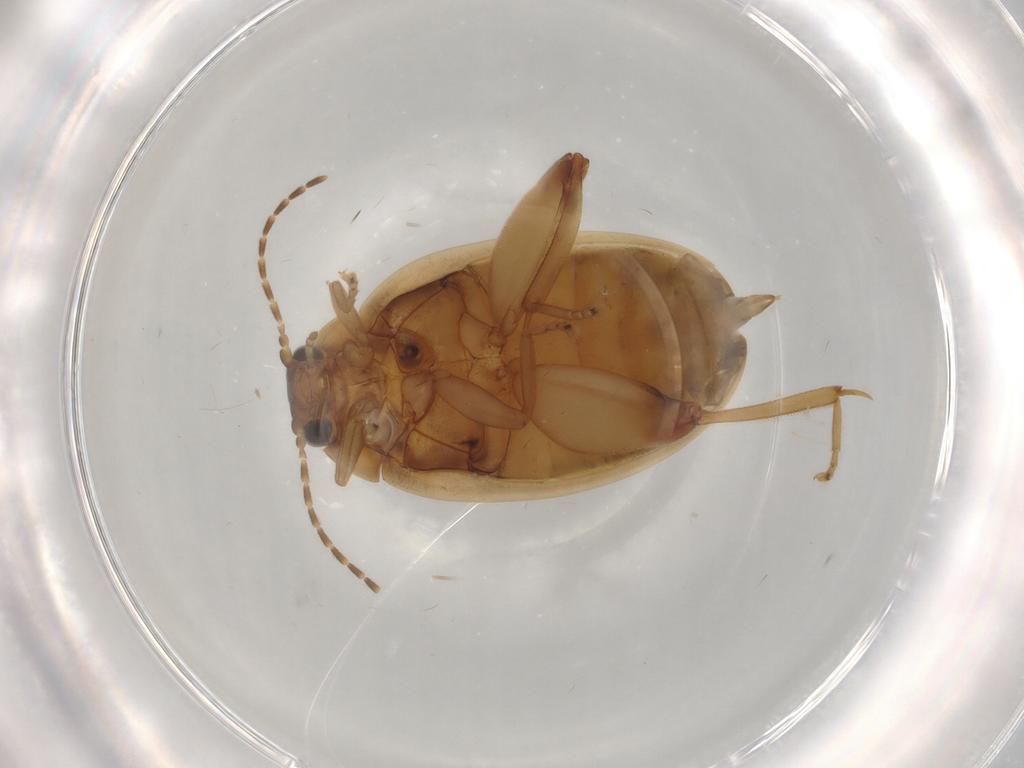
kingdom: Animalia
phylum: Arthropoda
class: Insecta
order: Coleoptera
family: Scirtidae
